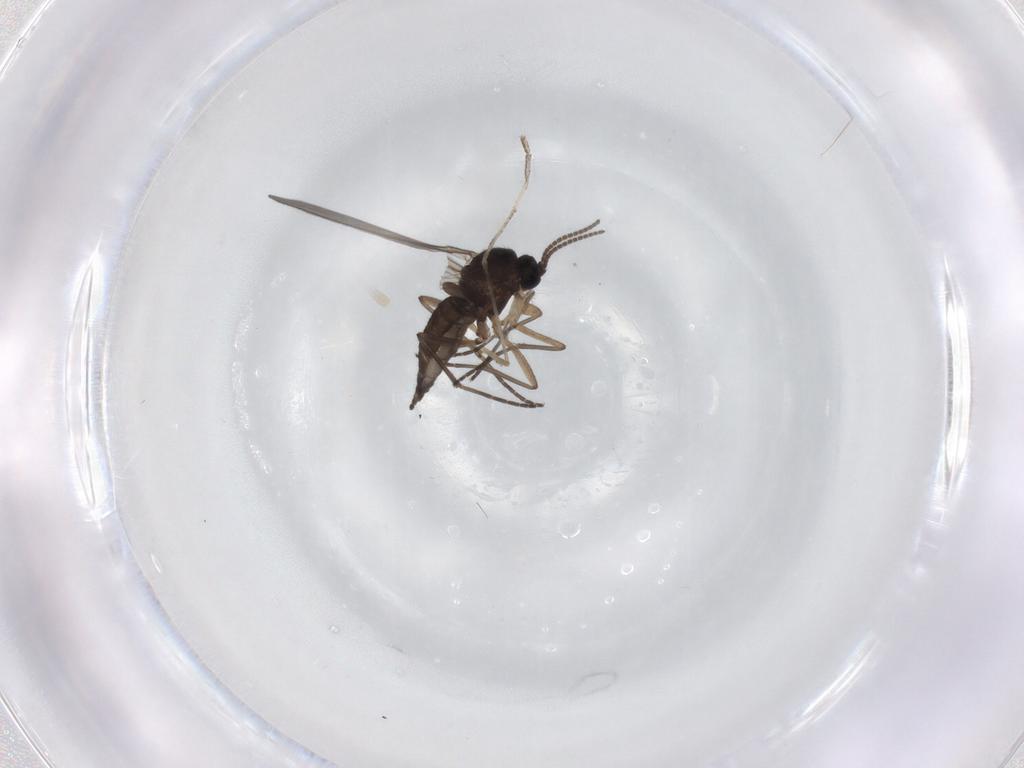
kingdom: Animalia
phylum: Arthropoda
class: Insecta
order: Diptera
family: Sciaridae
